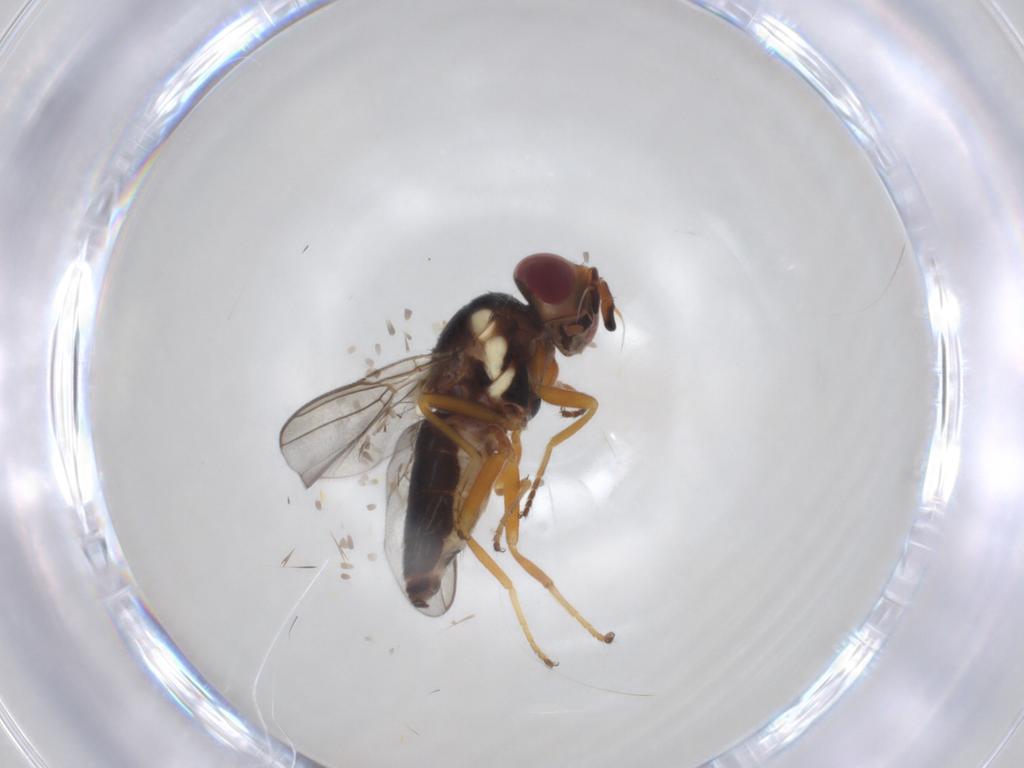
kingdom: Animalia
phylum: Arthropoda
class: Insecta
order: Diptera
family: Chloropidae
